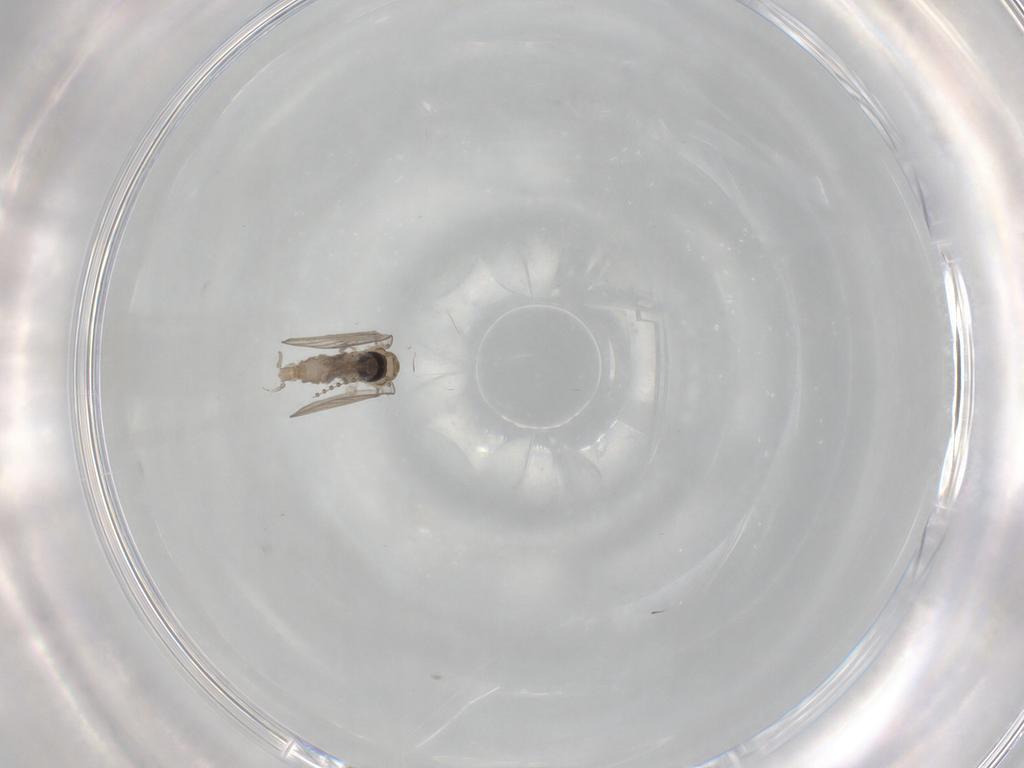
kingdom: Animalia
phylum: Arthropoda
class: Insecta
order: Diptera
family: Psychodidae
